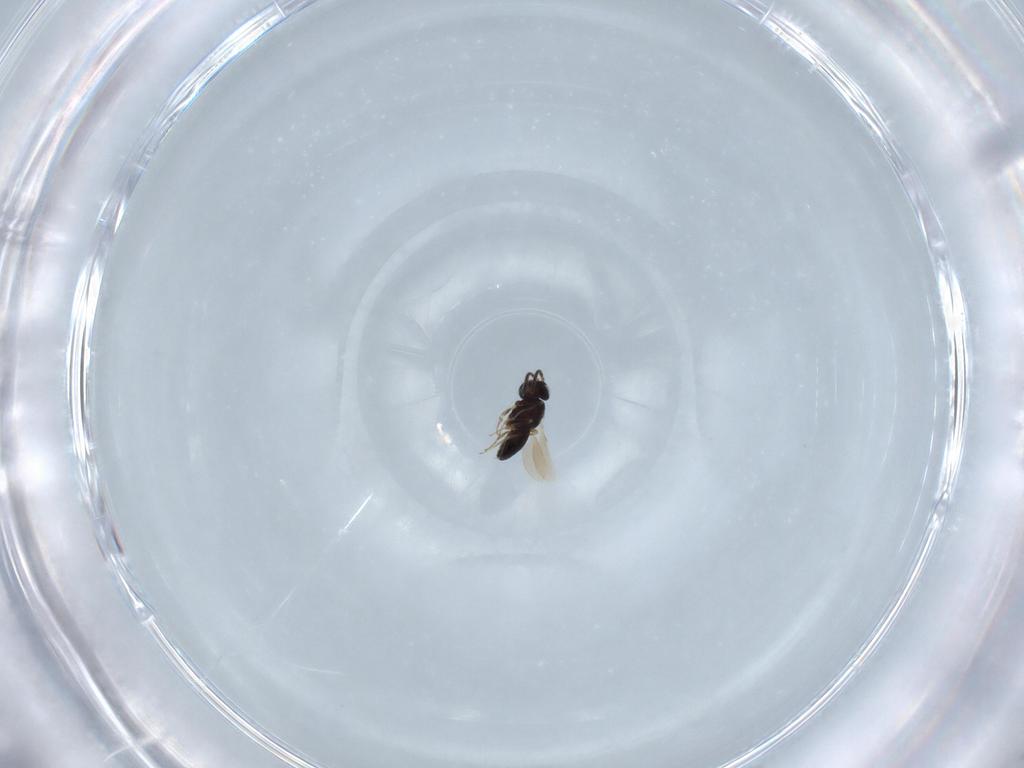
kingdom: Animalia
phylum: Arthropoda
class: Insecta
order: Hymenoptera
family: Scelionidae
